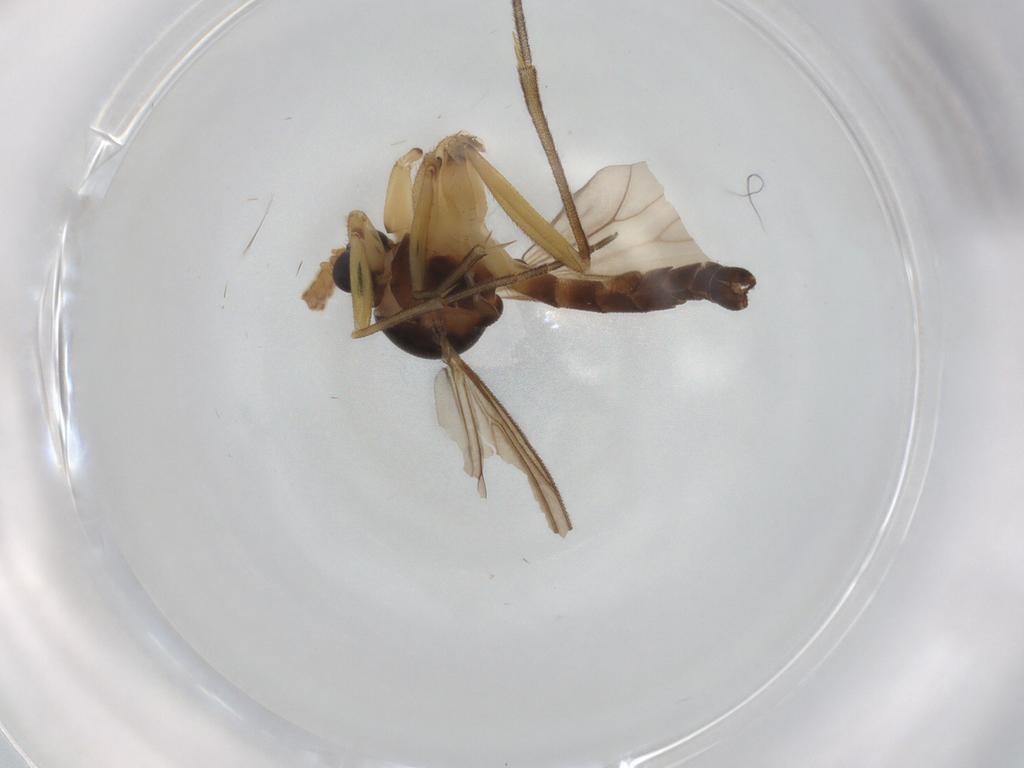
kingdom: Animalia
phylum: Arthropoda
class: Insecta
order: Diptera
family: Mycetophilidae
